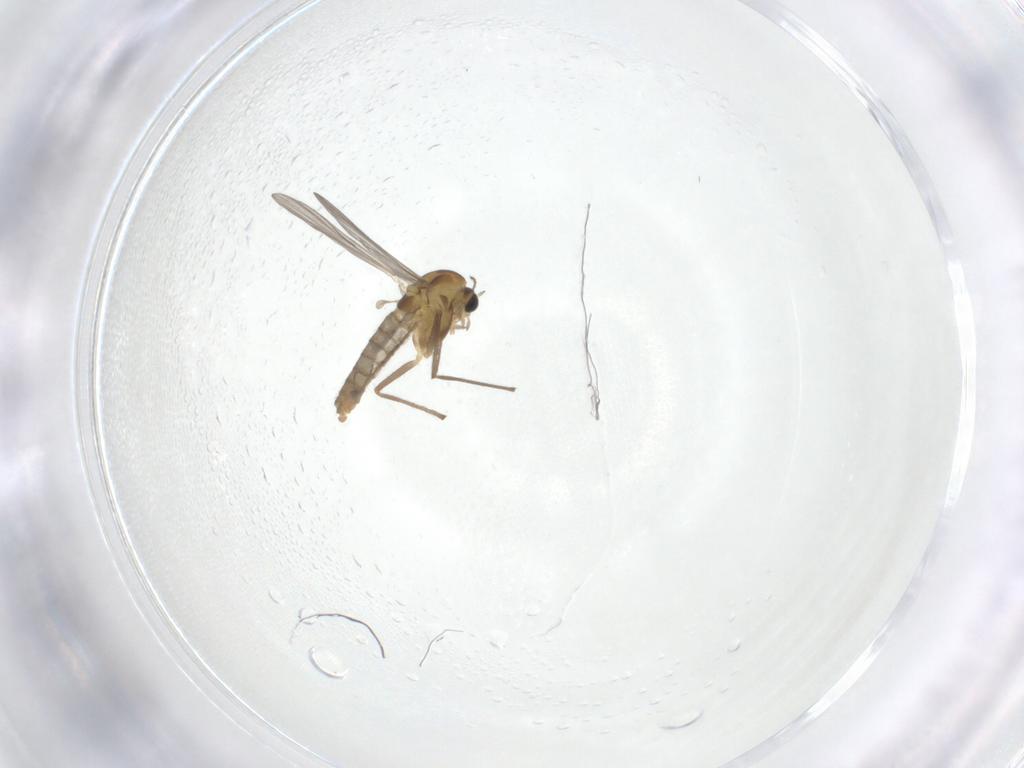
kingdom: Animalia
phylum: Arthropoda
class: Insecta
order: Diptera
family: Chironomidae
